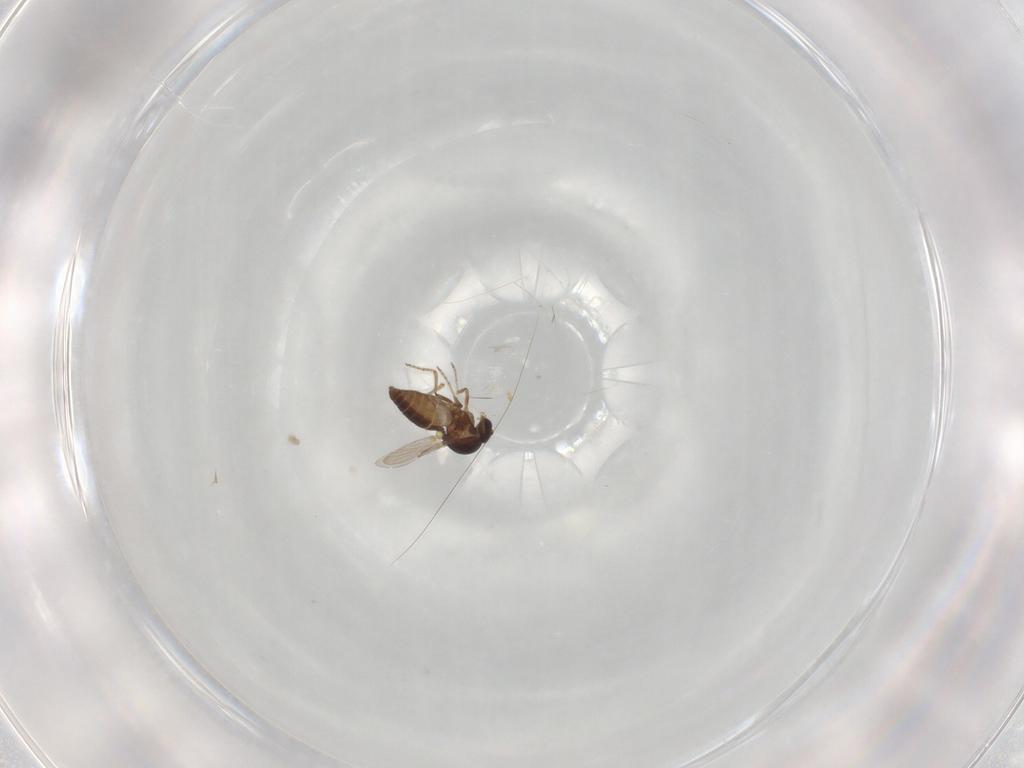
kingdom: Animalia
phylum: Arthropoda
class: Insecta
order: Diptera
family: Ceratopogonidae
